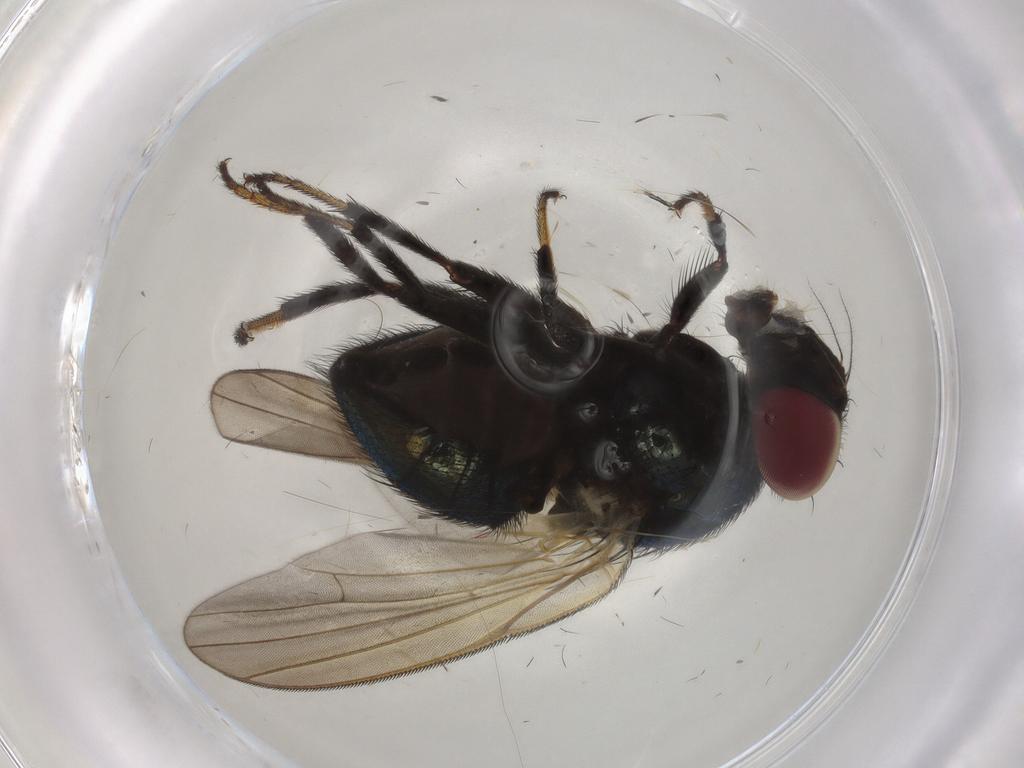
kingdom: Animalia
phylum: Arthropoda
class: Insecta
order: Diptera
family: Lonchaeidae
